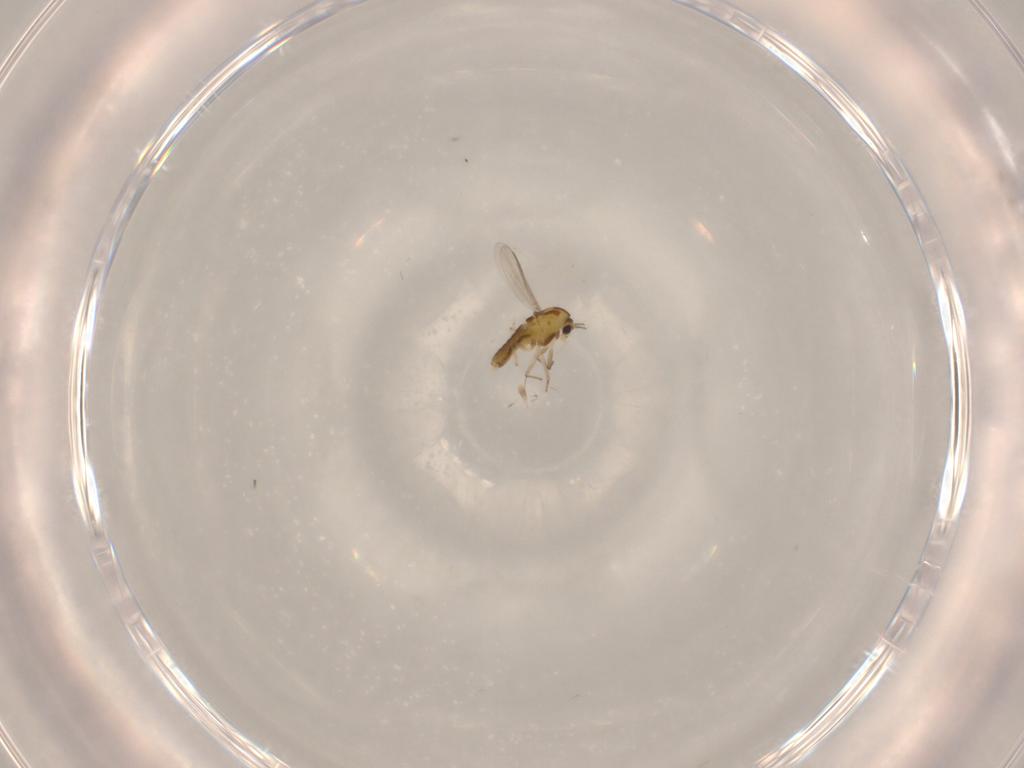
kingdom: Animalia
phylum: Arthropoda
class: Insecta
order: Diptera
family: Chironomidae
